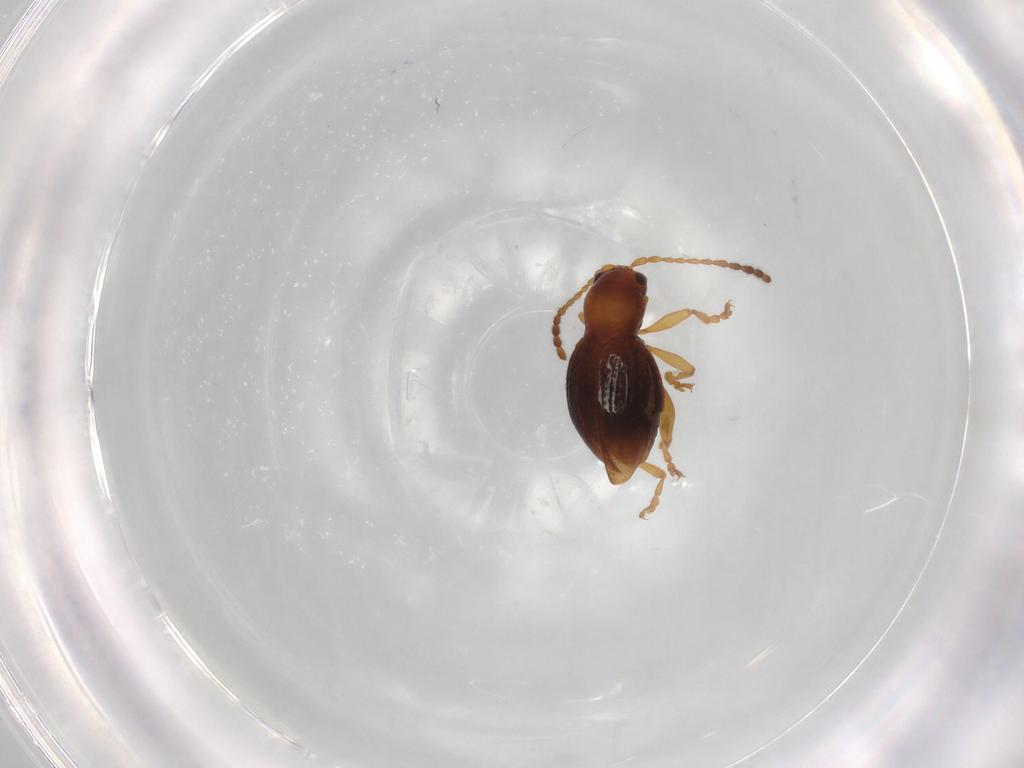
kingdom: Animalia
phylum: Arthropoda
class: Insecta
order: Coleoptera
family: Chrysomelidae
